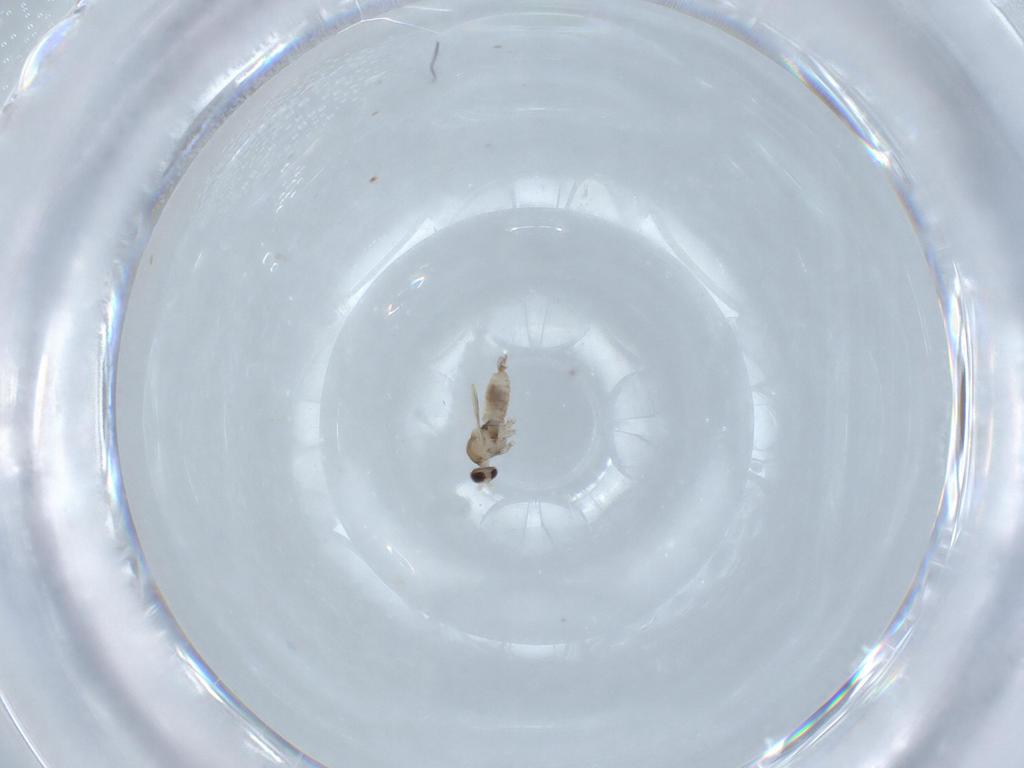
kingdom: Animalia
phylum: Arthropoda
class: Insecta
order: Diptera
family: Cecidomyiidae
